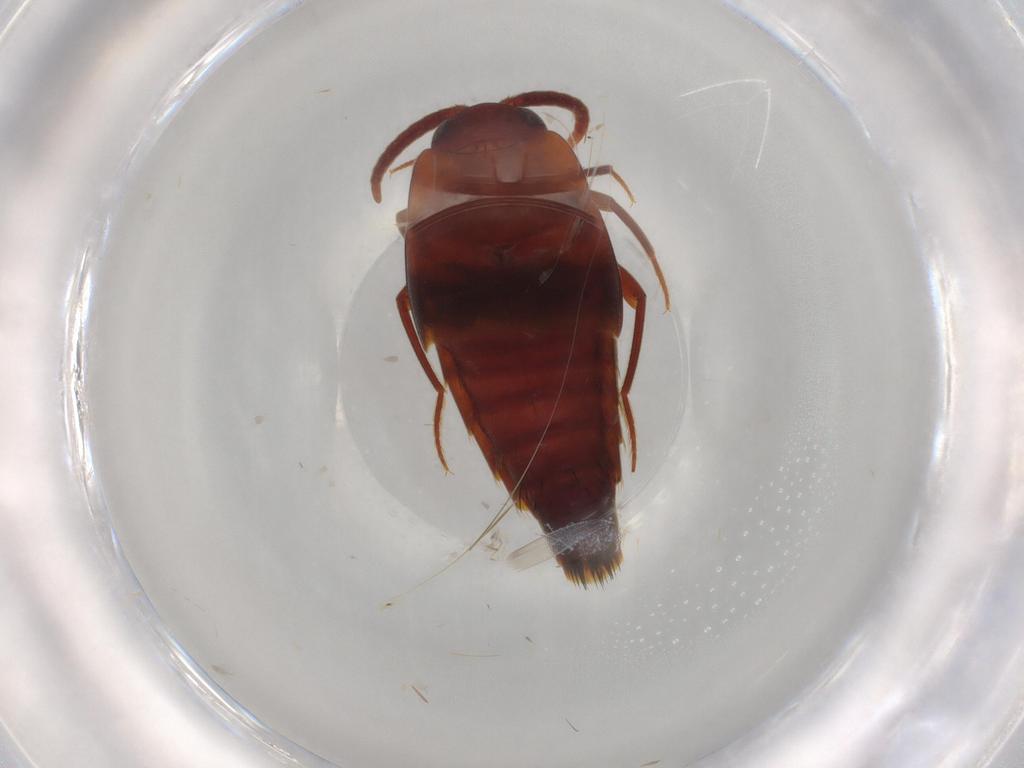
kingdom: Animalia
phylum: Arthropoda
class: Insecta
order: Coleoptera
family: Staphylinidae
